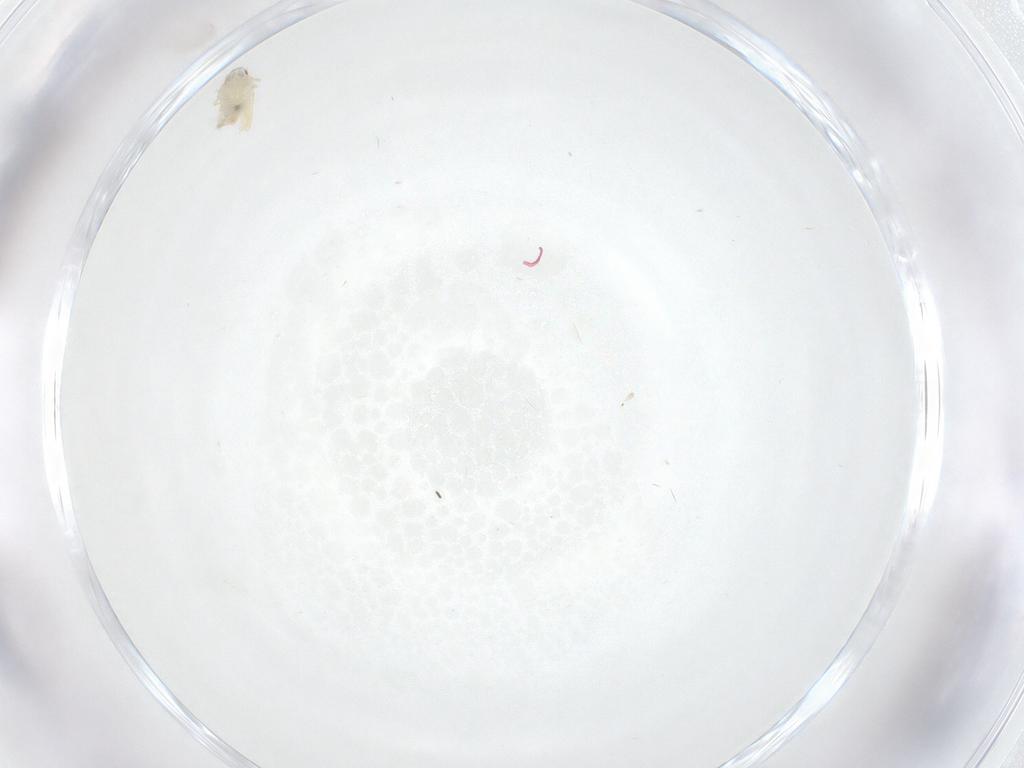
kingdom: Animalia
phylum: Arthropoda
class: Insecta
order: Hemiptera
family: Aleyrodidae
